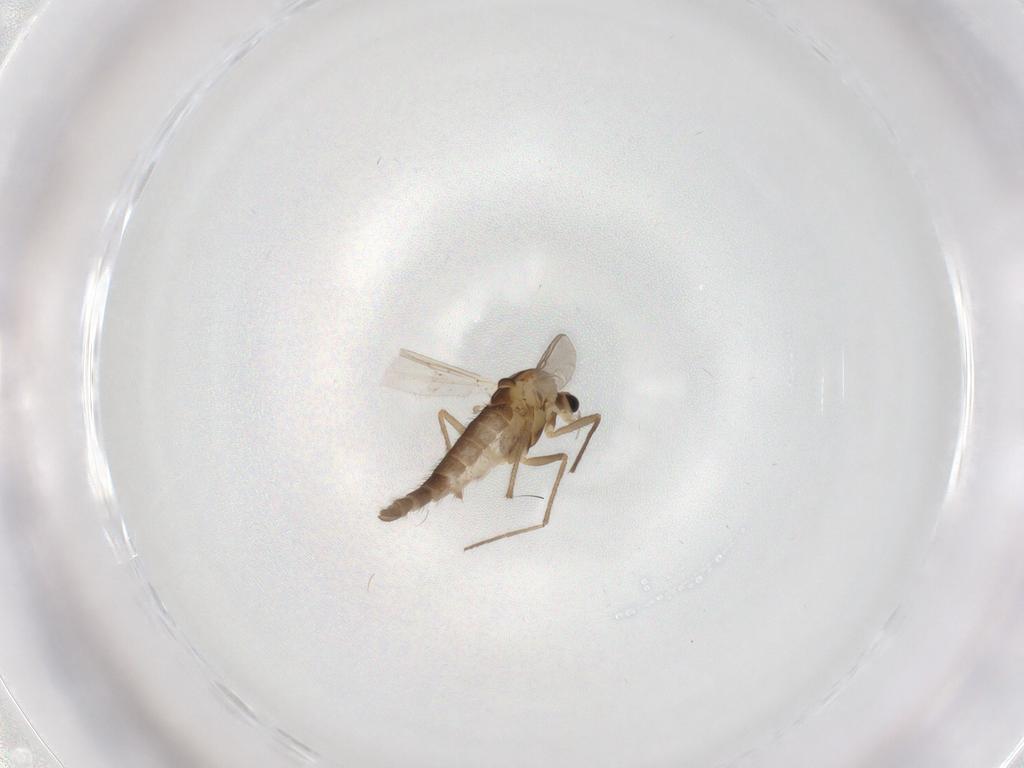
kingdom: Animalia
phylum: Arthropoda
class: Insecta
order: Diptera
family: Chironomidae
